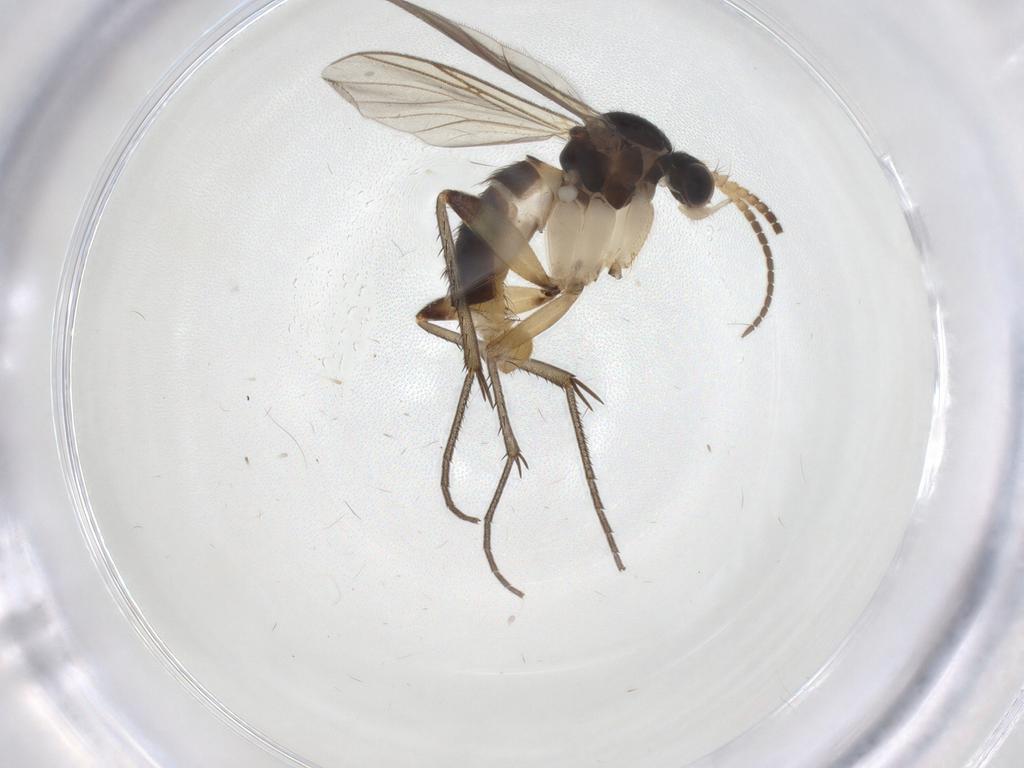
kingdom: Animalia
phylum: Arthropoda
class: Insecta
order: Diptera
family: Mycetophilidae
